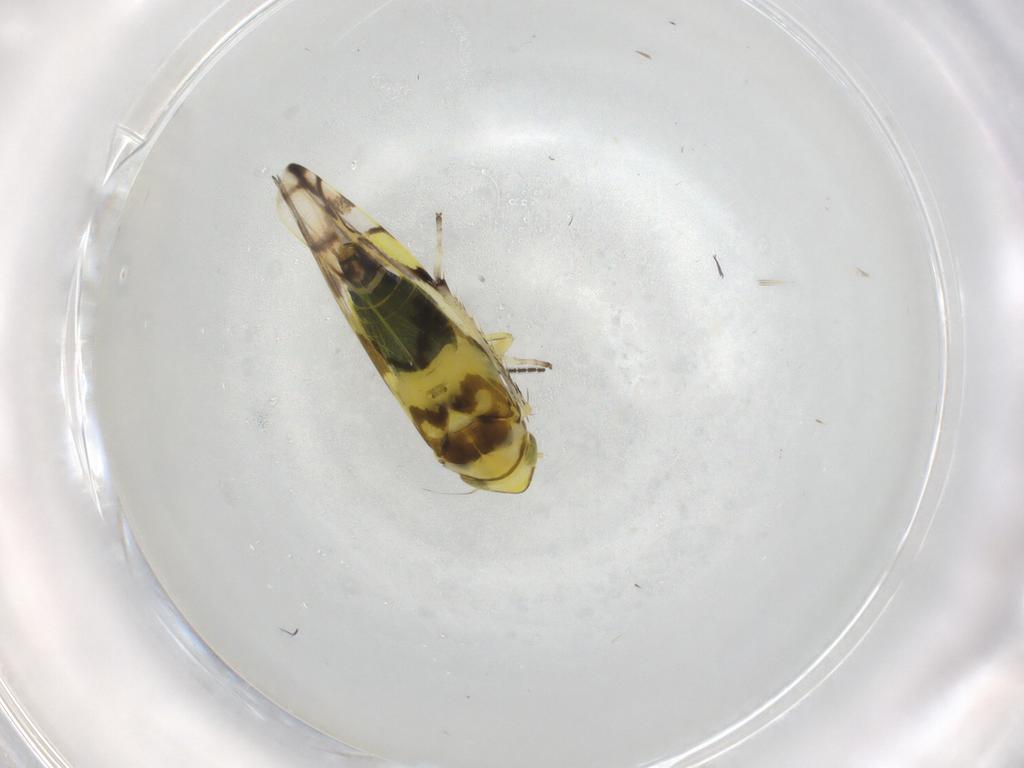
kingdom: Animalia
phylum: Arthropoda
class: Insecta
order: Hemiptera
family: Cicadellidae
